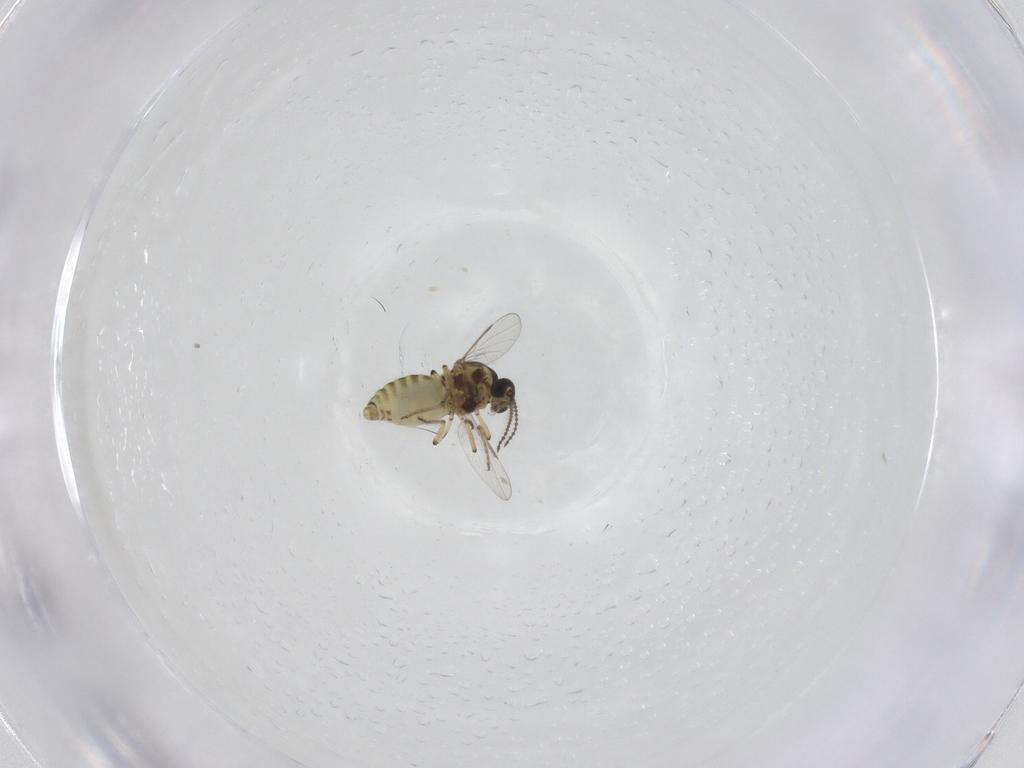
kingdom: Animalia
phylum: Arthropoda
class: Insecta
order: Diptera
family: Ceratopogonidae
